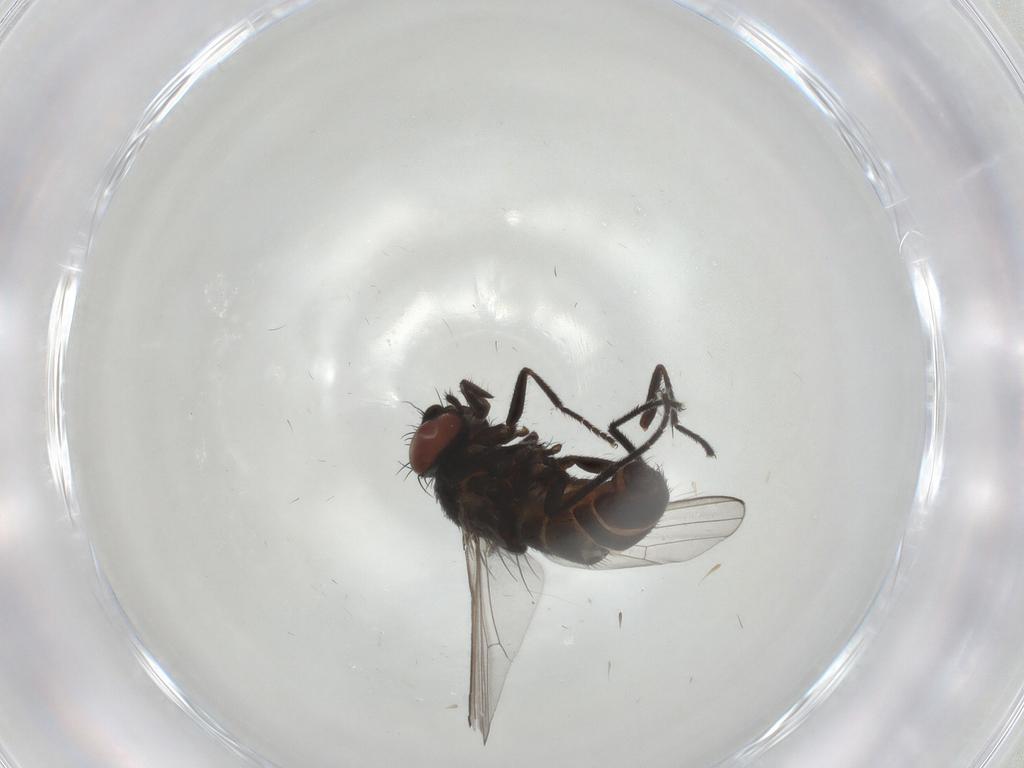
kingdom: Animalia
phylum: Arthropoda
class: Insecta
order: Diptera
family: Milichiidae
